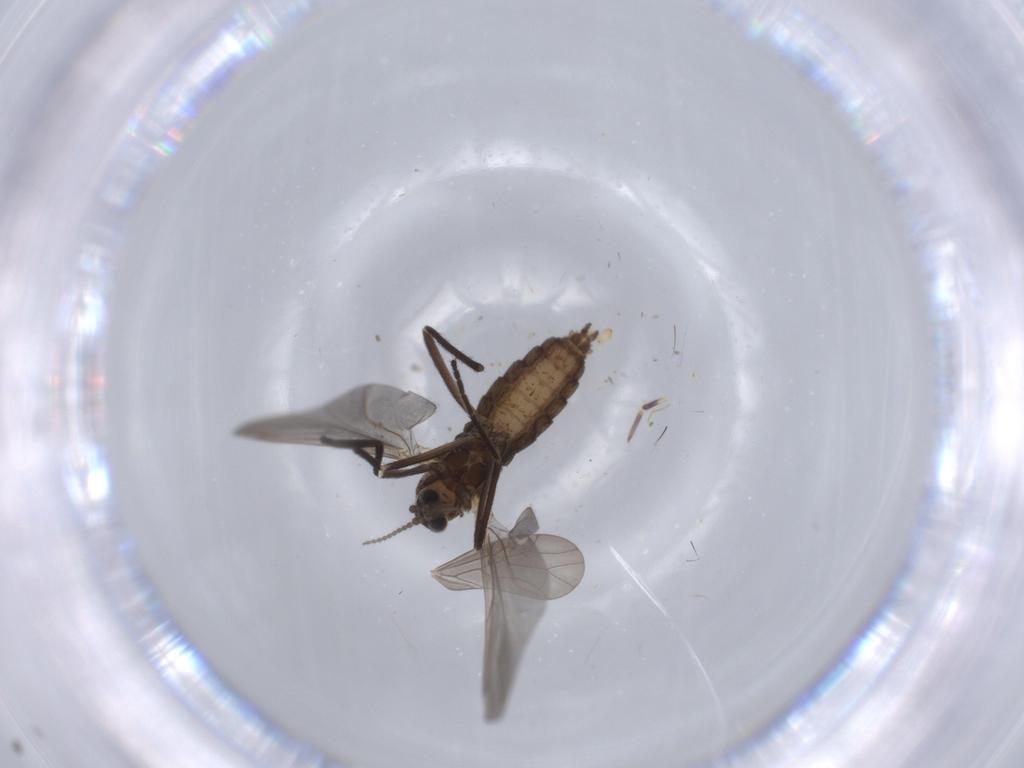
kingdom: Animalia
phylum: Arthropoda
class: Insecta
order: Diptera
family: Cecidomyiidae
